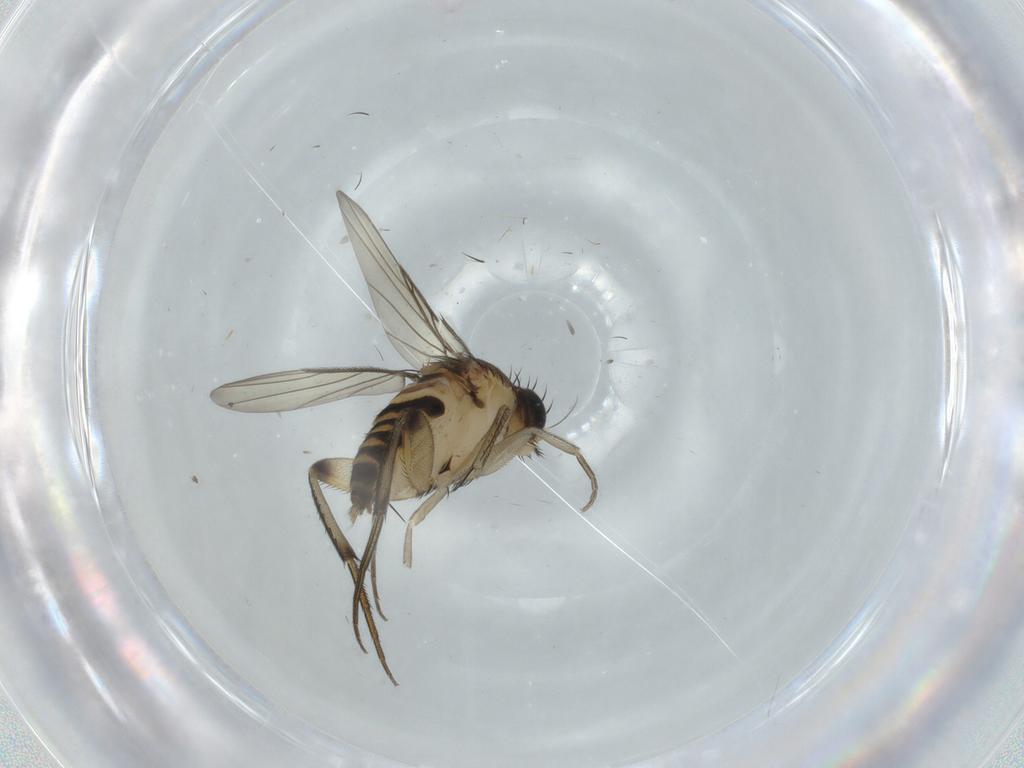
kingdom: Animalia
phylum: Arthropoda
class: Insecta
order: Diptera
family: Phoridae
